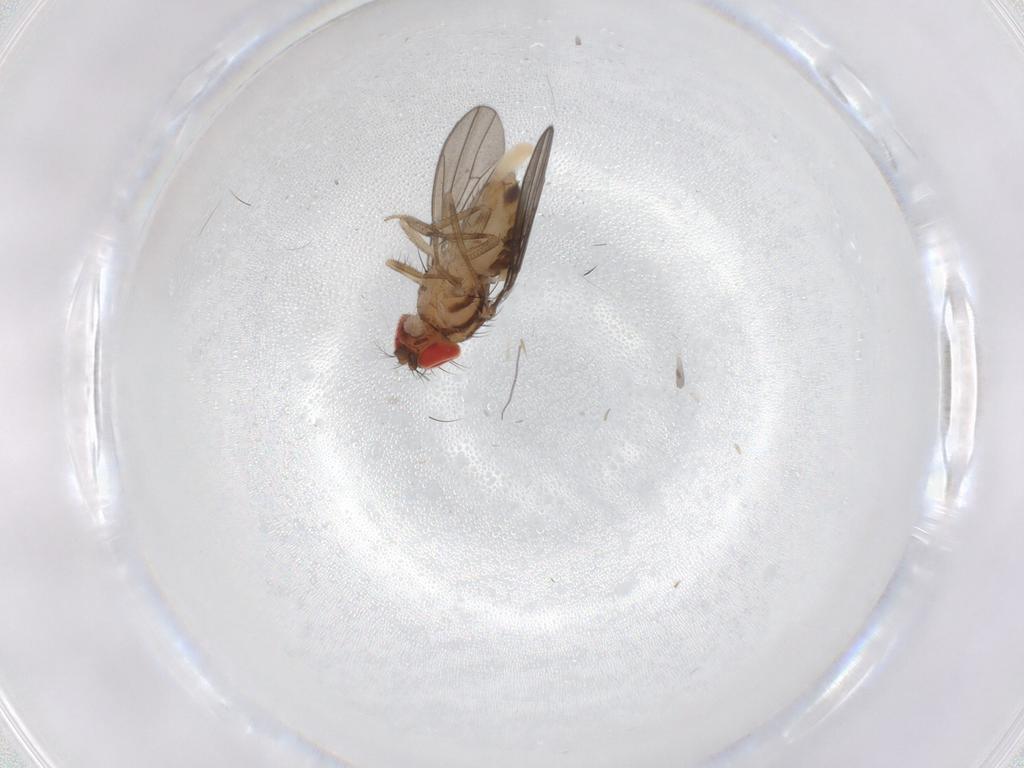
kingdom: Animalia
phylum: Arthropoda
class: Insecta
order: Diptera
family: Drosophilidae
